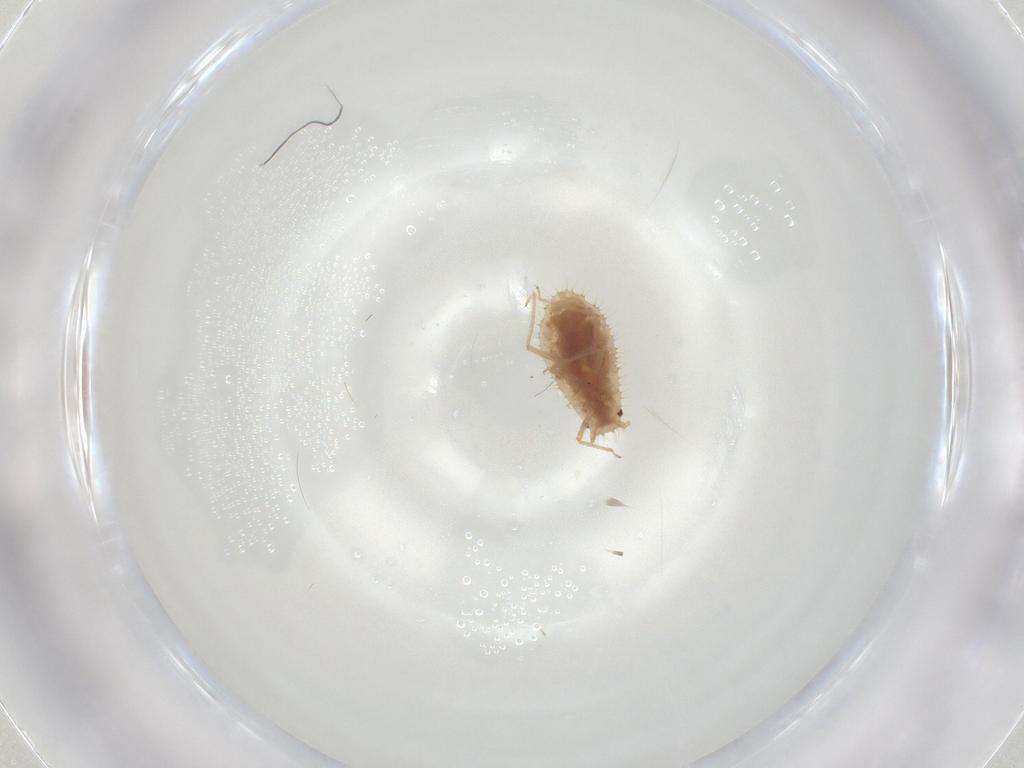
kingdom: Animalia
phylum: Arthropoda
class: Insecta
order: Hemiptera
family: Aphididae
